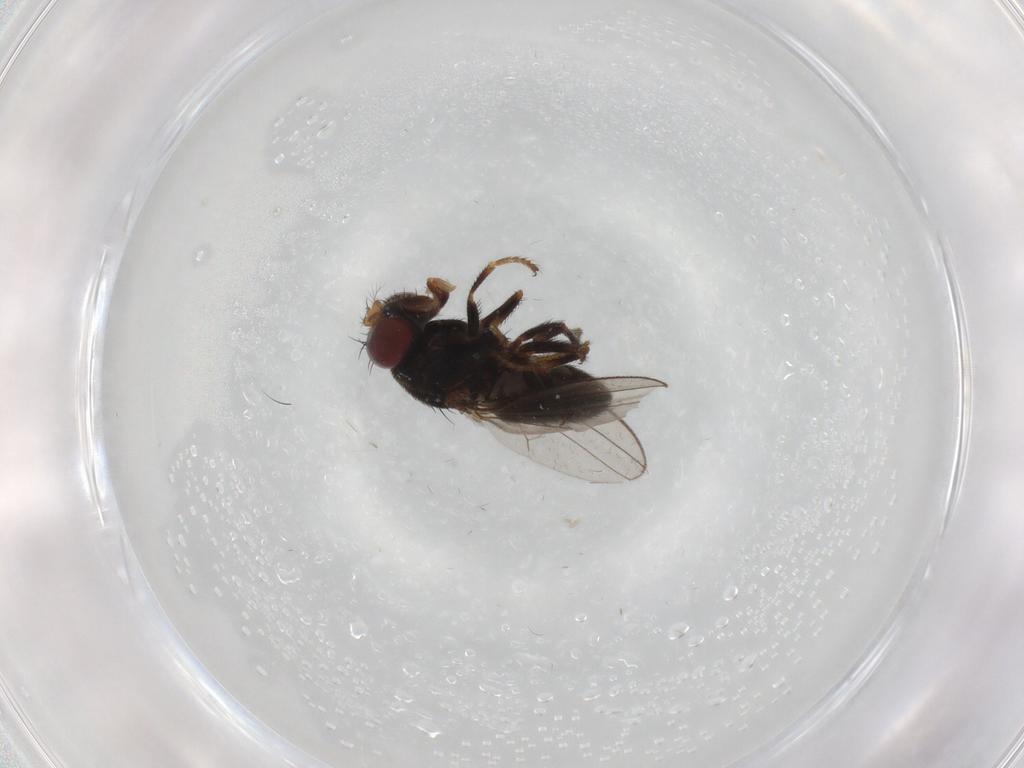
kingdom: Animalia
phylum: Arthropoda
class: Insecta
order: Diptera
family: Ephydridae
